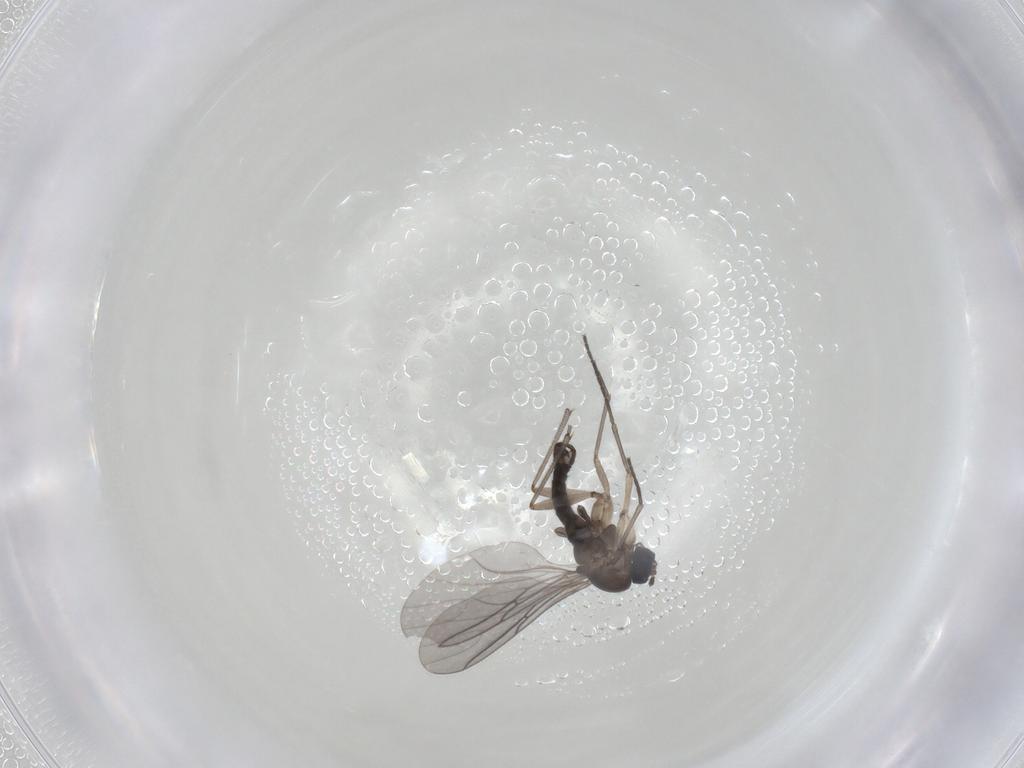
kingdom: Animalia
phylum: Arthropoda
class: Insecta
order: Diptera
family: Sciaridae
